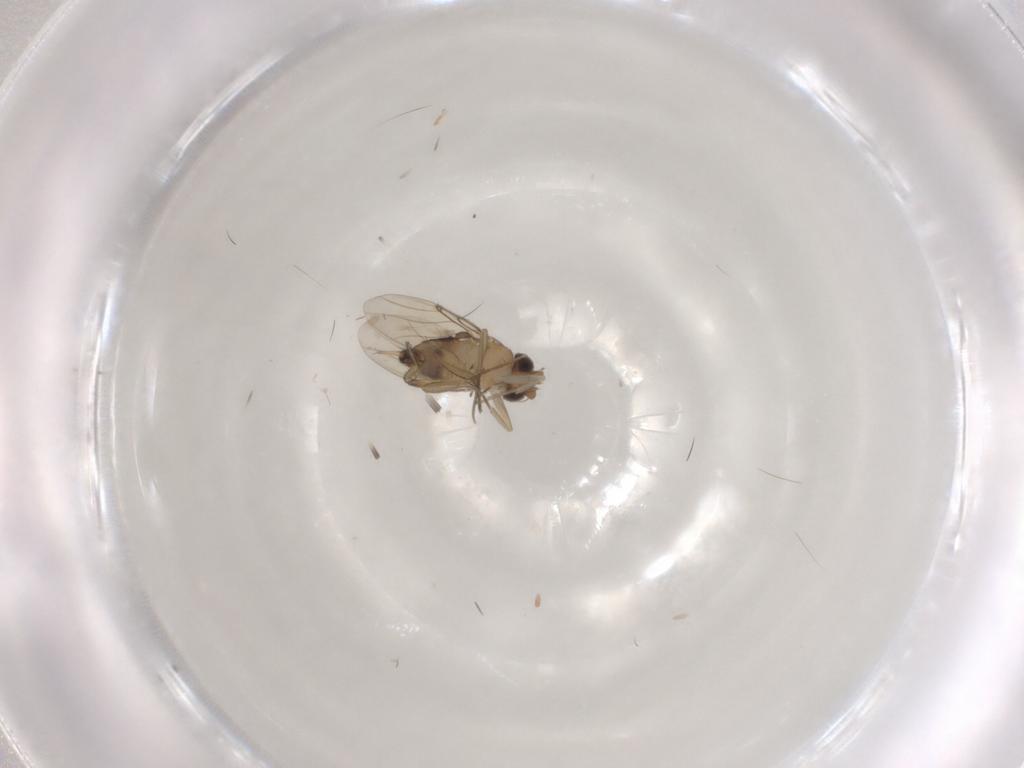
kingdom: Animalia
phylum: Arthropoda
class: Insecta
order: Diptera
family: Phoridae
